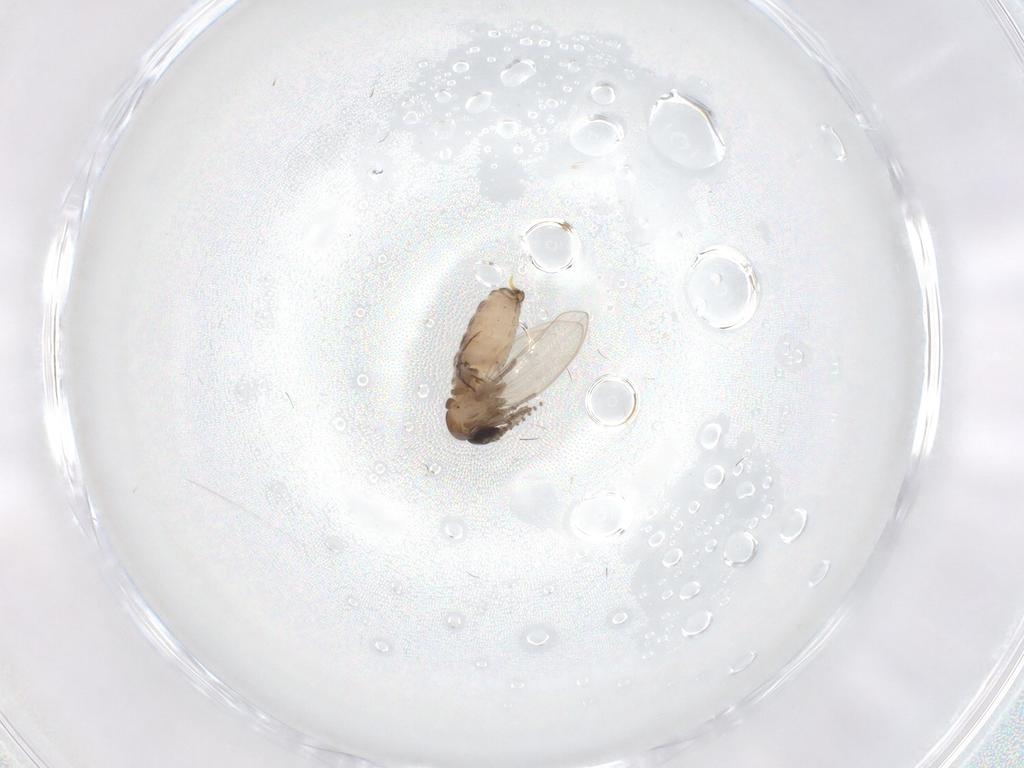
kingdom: Animalia
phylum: Arthropoda
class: Insecta
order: Diptera
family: Psychodidae
